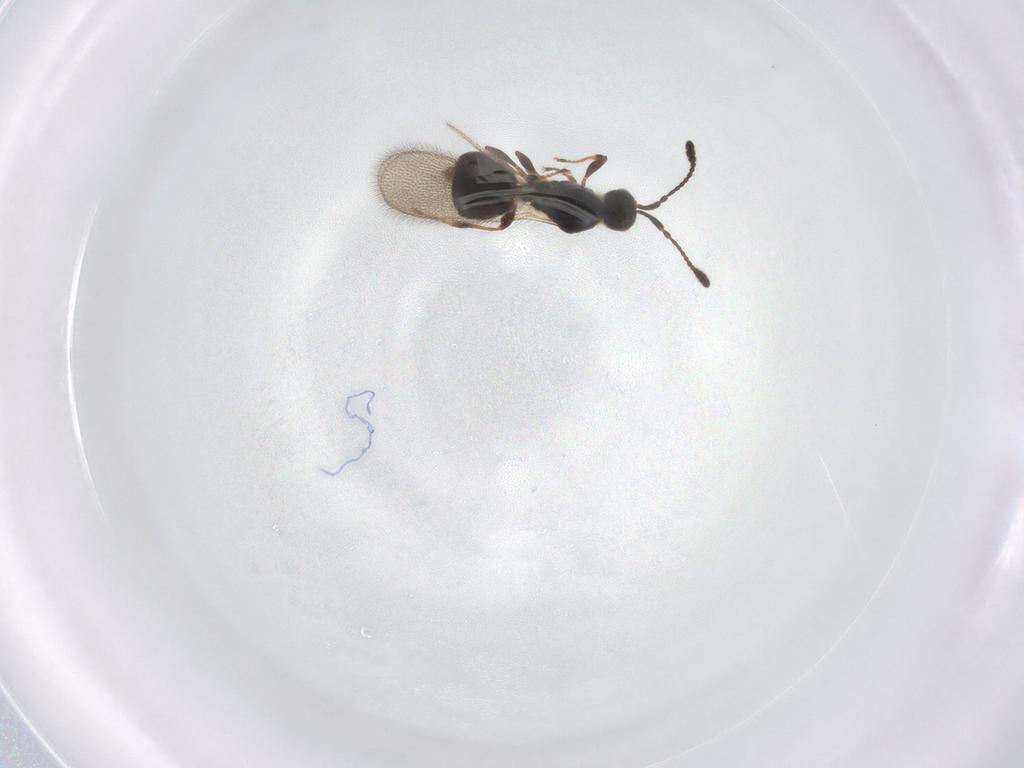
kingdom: Animalia
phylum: Arthropoda
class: Insecta
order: Hymenoptera
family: Diapriidae
